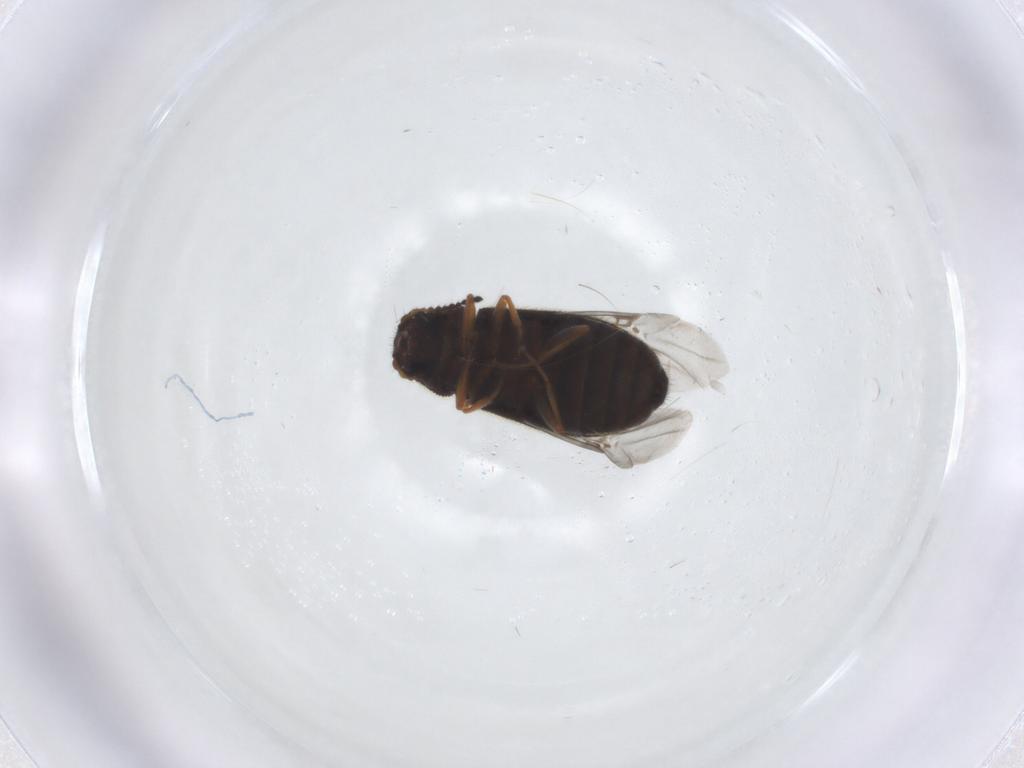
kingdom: Animalia
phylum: Arthropoda
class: Insecta
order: Coleoptera
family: Melyridae
